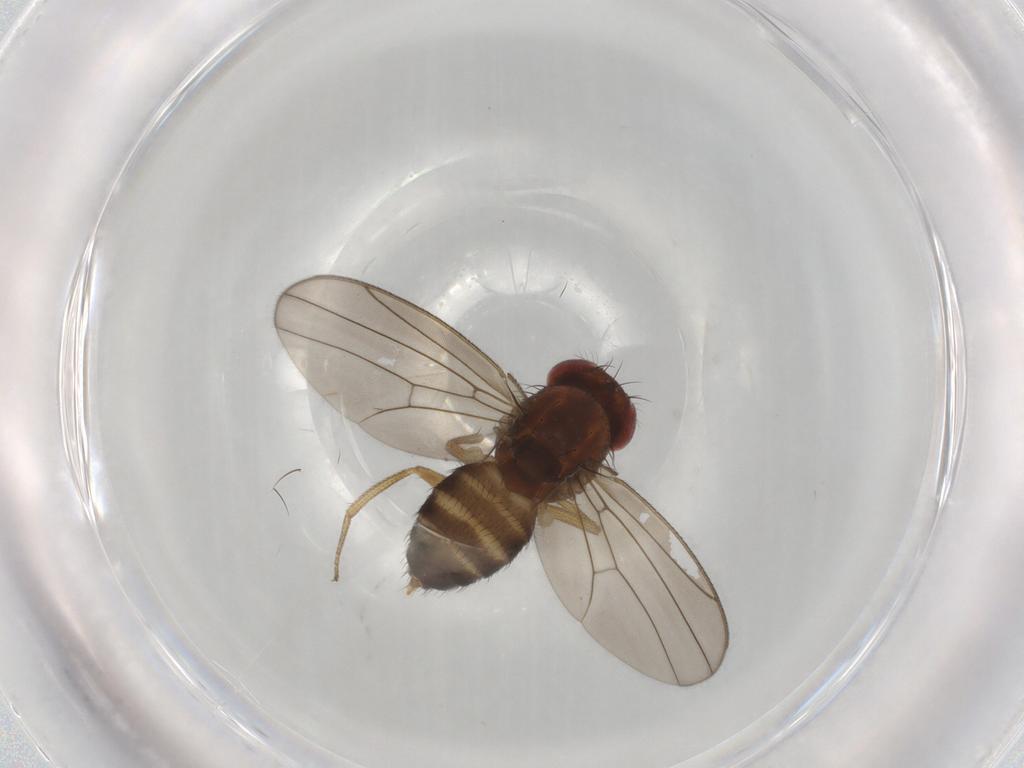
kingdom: Animalia
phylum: Arthropoda
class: Insecta
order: Diptera
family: Drosophilidae
